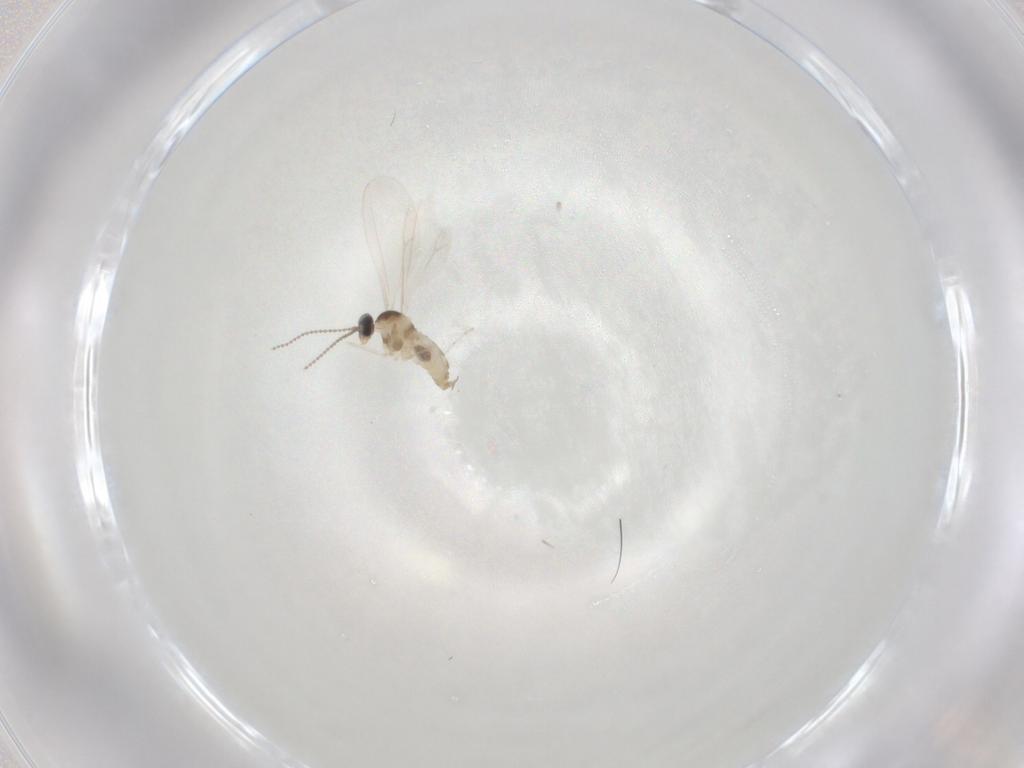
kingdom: Animalia
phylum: Arthropoda
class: Insecta
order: Diptera
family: Cecidomyiidae
